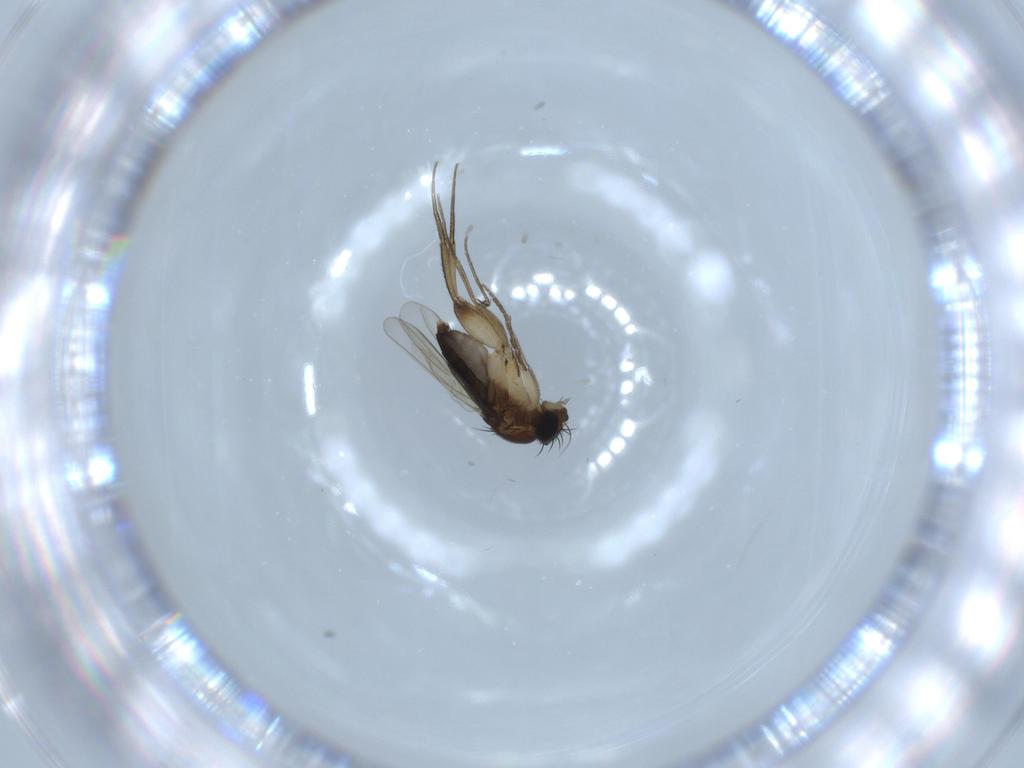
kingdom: Animalia
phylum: Arthropoda
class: Insecta
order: Diptera
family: Phoridae
